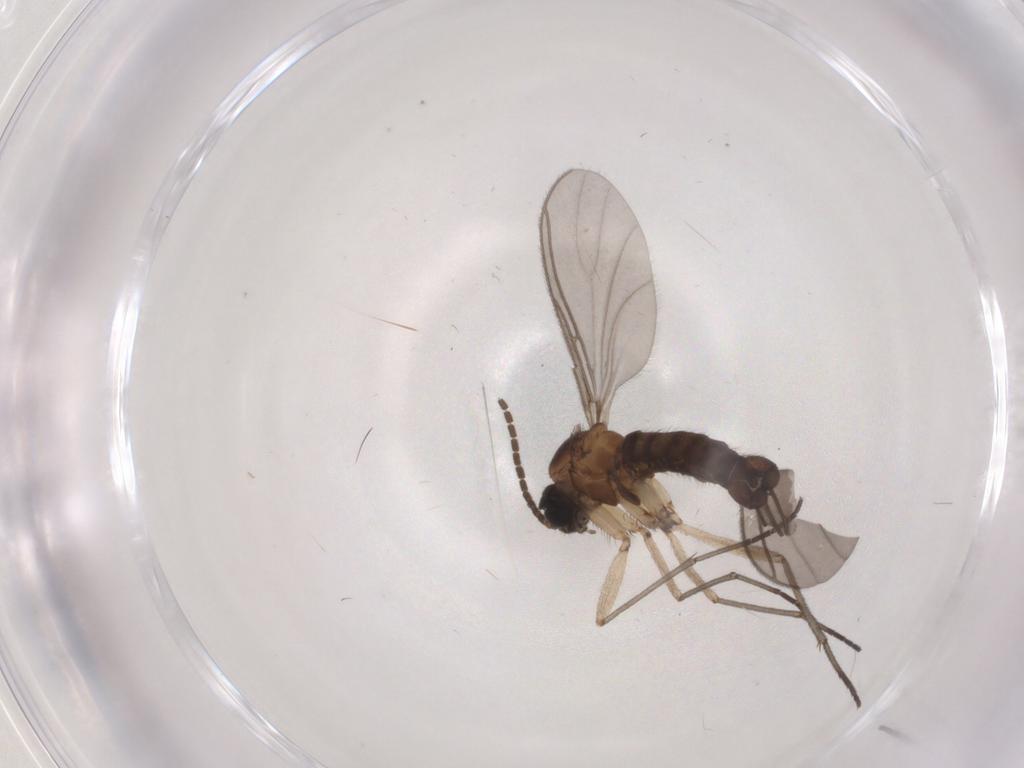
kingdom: Animalia
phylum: Arthropoda
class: Insecta
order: Diptera
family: Sciaridae
